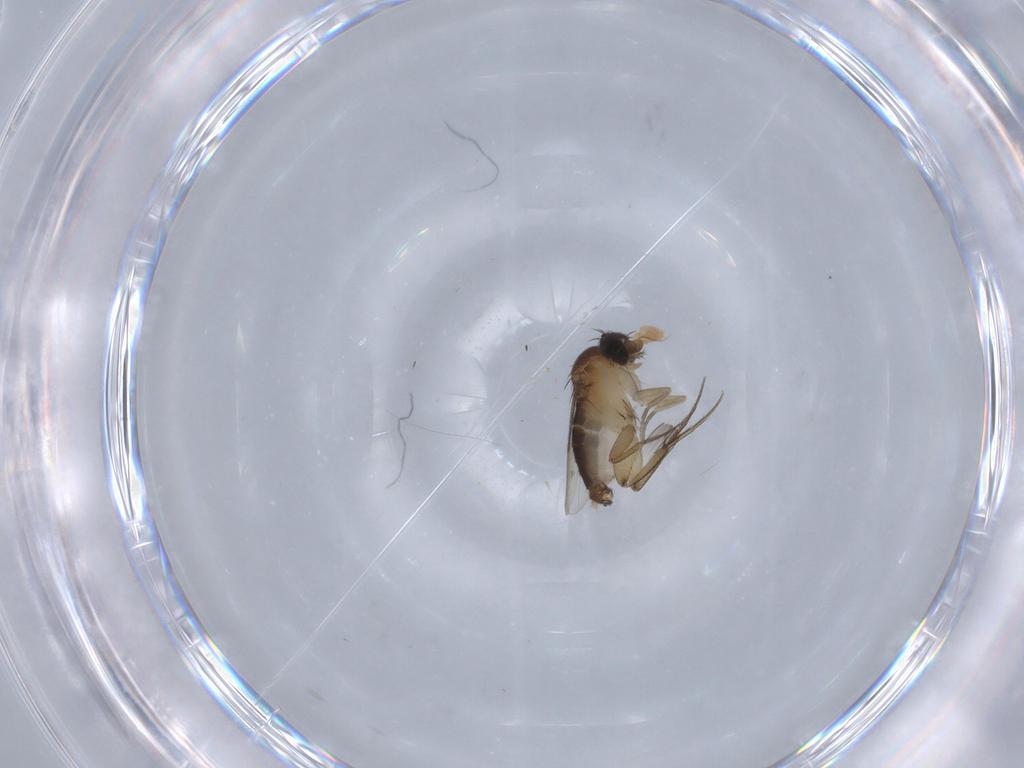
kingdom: Animalia
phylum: Arthropoda
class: Insecta
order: Diptera
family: Phoridae
